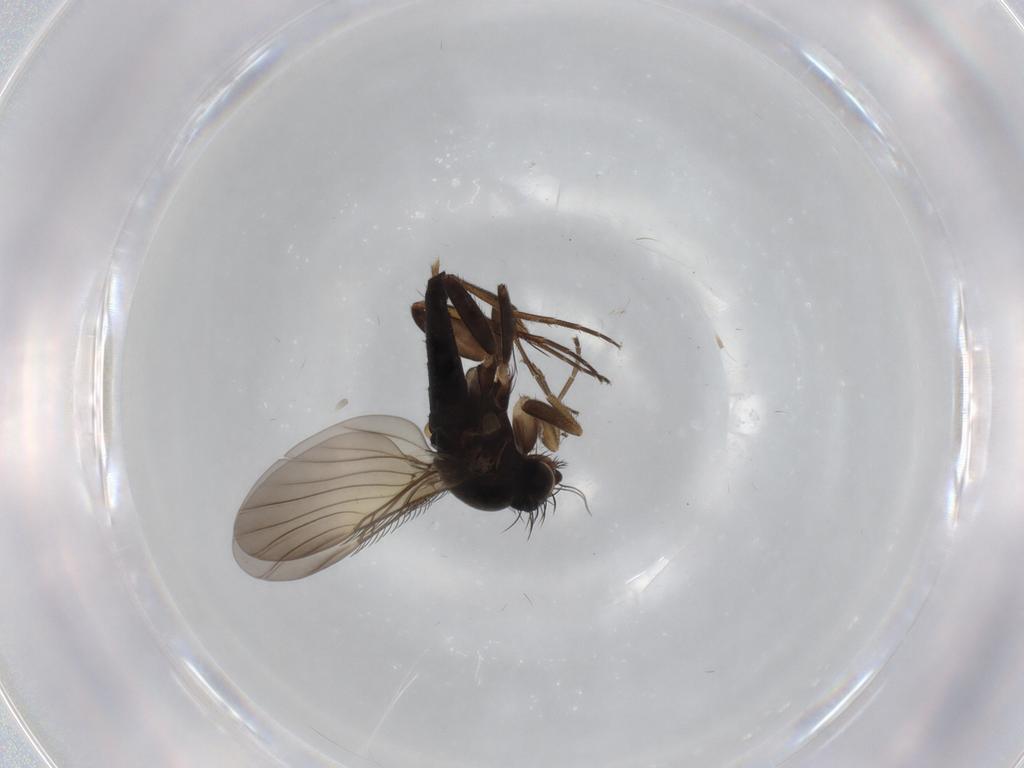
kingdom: Animalia
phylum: Arthropoda
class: Insecta
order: Diptera
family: Phoridae
